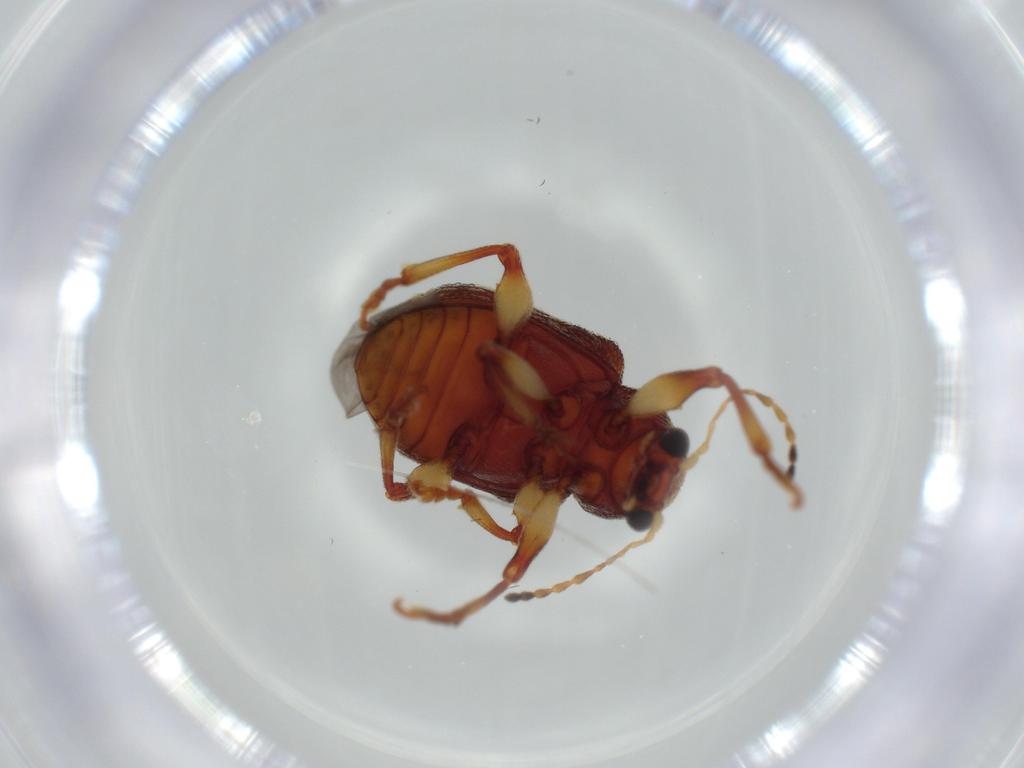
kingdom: Animalia
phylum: Arthropoda
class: Insecta
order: Coleoptera
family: Chrysomelidae
